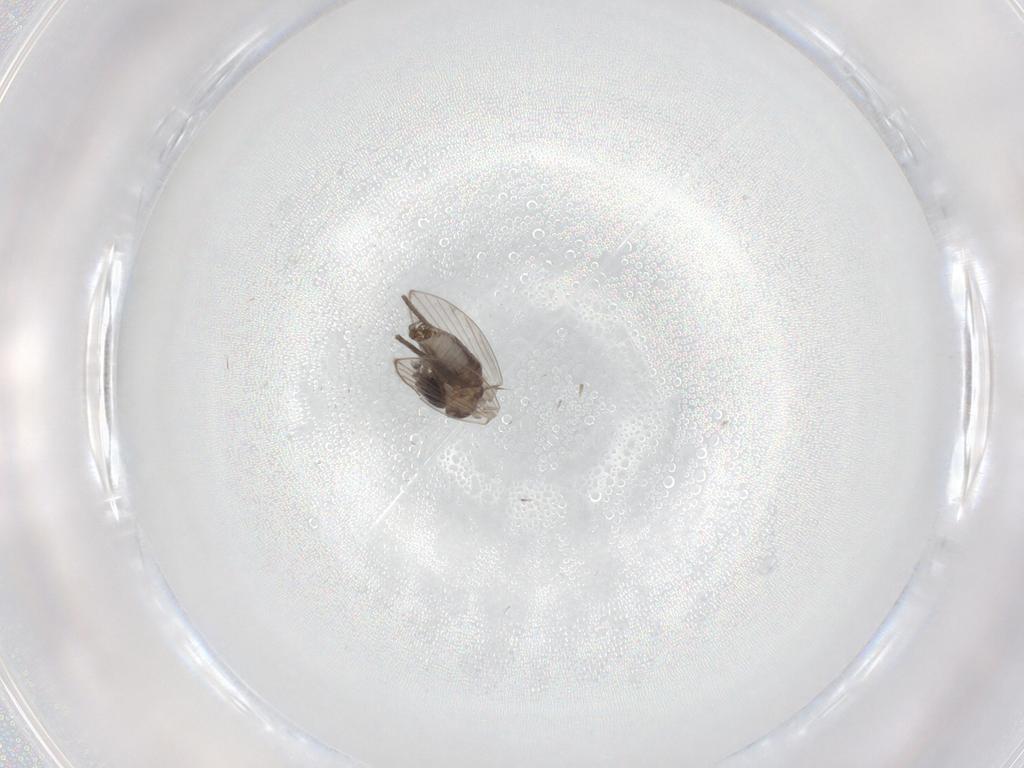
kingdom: Animalia
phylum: Arthropoda
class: Insecta
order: Diptera
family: Psychodidae
